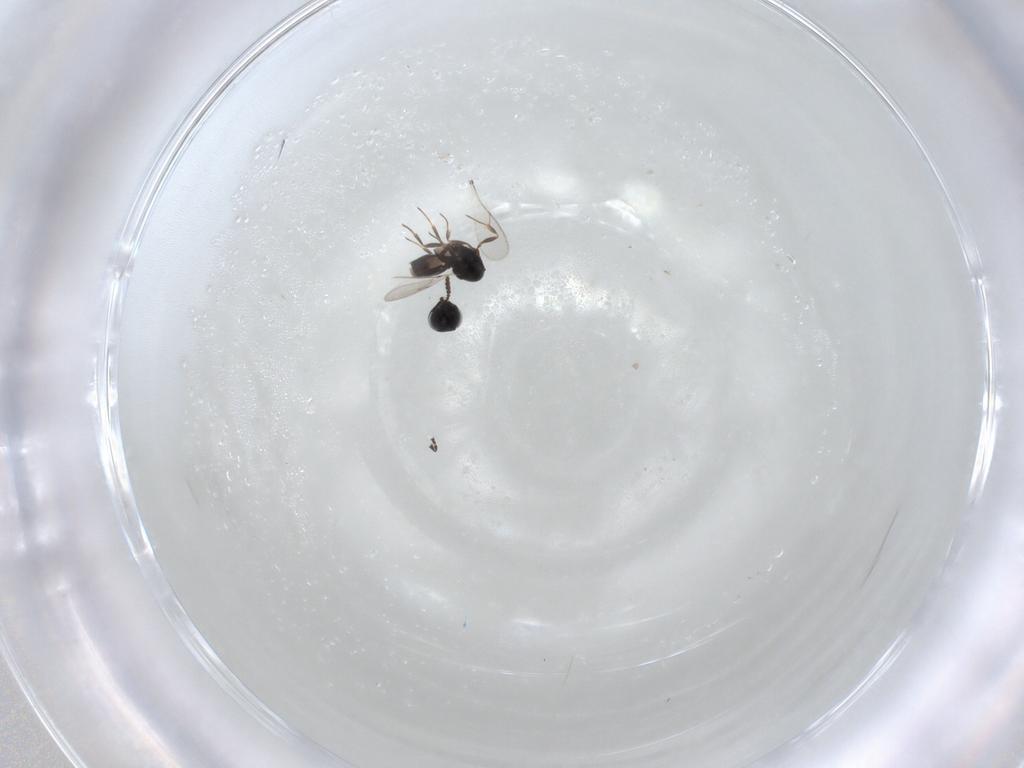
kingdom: Animalia
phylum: Arthropoda
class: Insecta
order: Hymenoptera
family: Scelionidae
